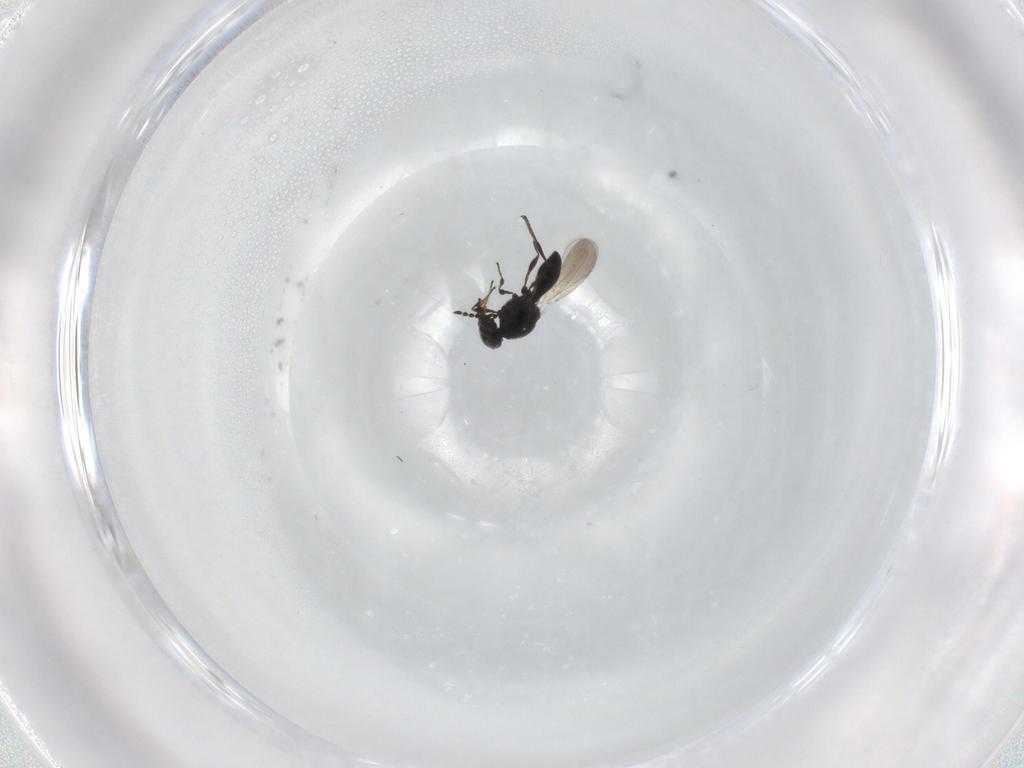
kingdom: Animalia
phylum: Arthropoda
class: Insecta
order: Hymenoptera
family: Platygastridae
